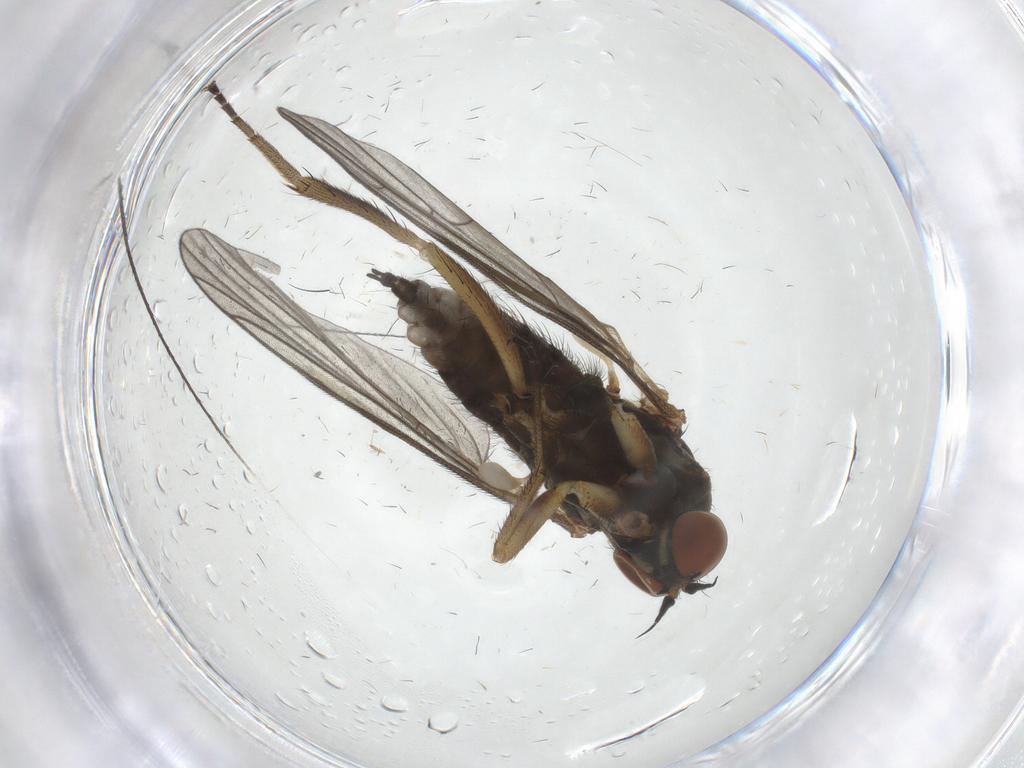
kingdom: Animalia
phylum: Arthropoda
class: Insecta
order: Diptera
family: Empididae
